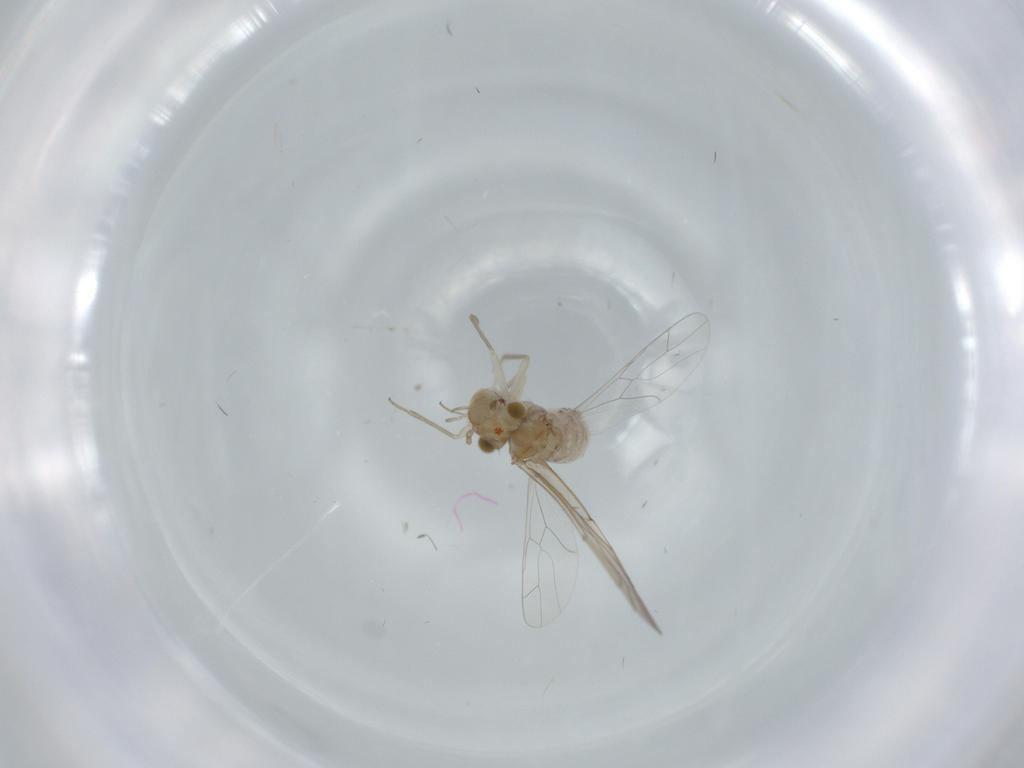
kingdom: Animalia
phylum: Arthropoda
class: Insecta
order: Psocodea
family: Lachesillidae
